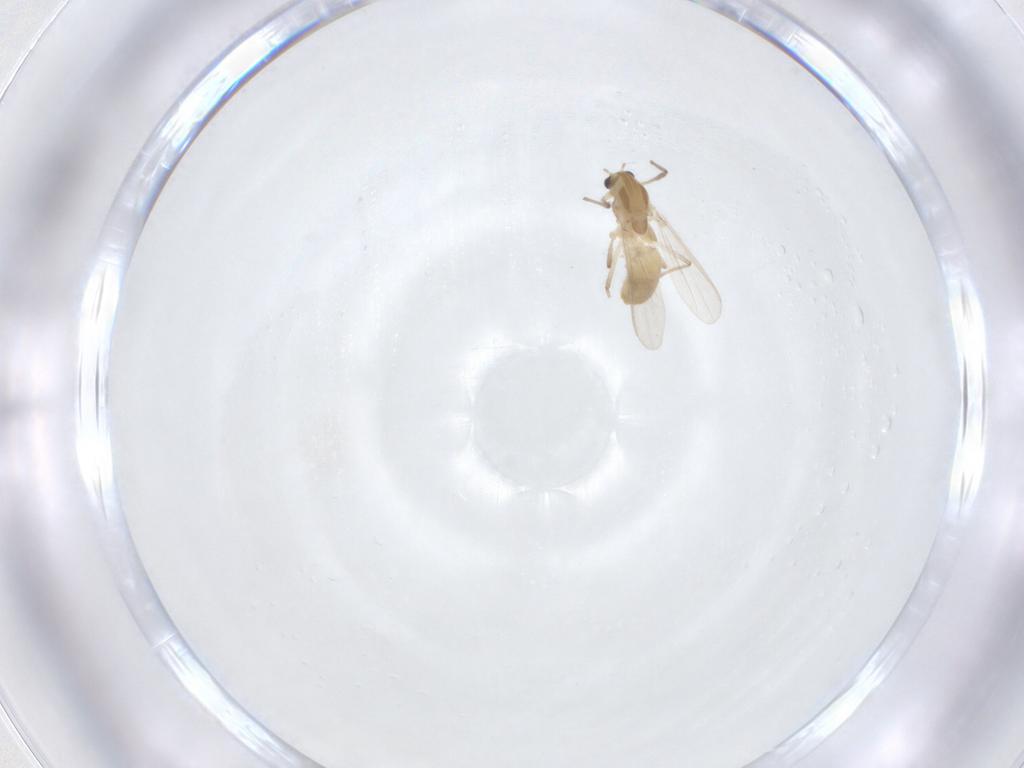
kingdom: Animalia
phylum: Arthropoda
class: Insecta
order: Diptera
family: Chironomidae
